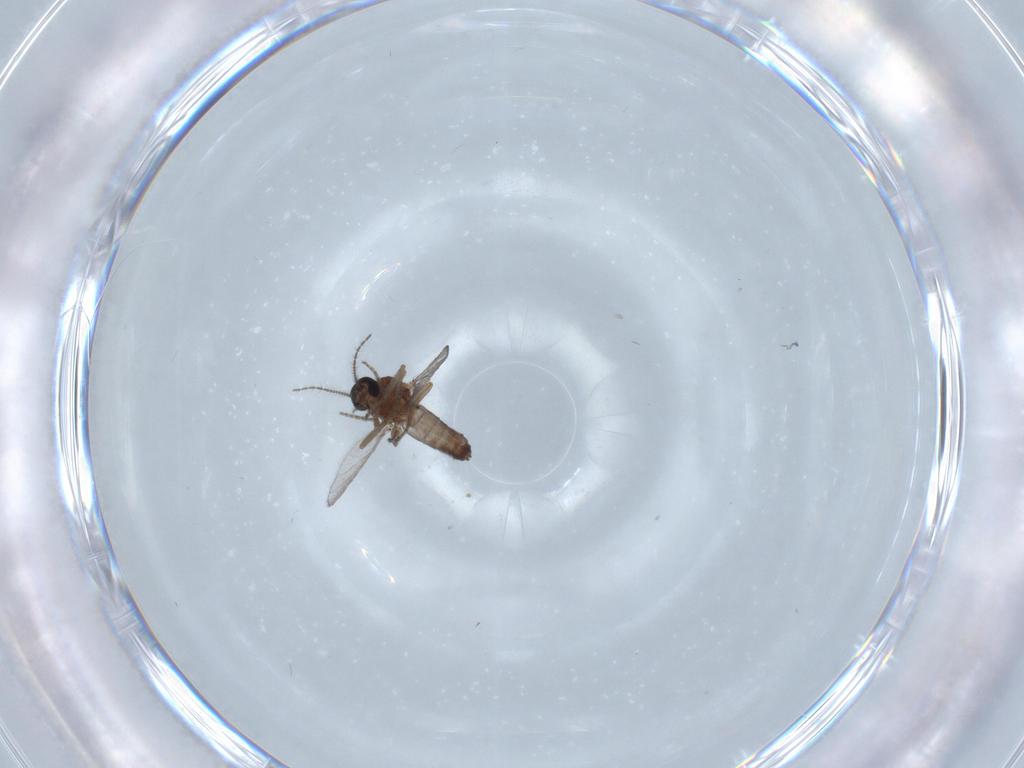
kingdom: Animalia
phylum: Arthropoda
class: Insecta
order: Diptera
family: Ceratopogonidae
